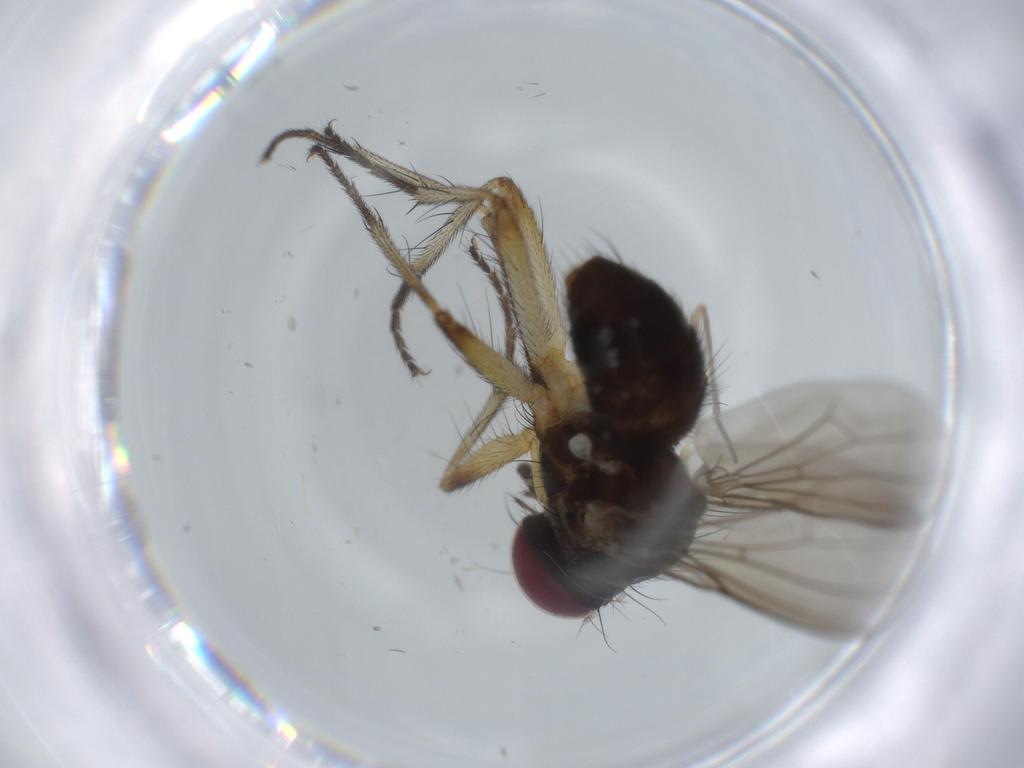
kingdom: Animalia
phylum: Arthropoda
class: Insecta
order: Diptera
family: Muscidae
